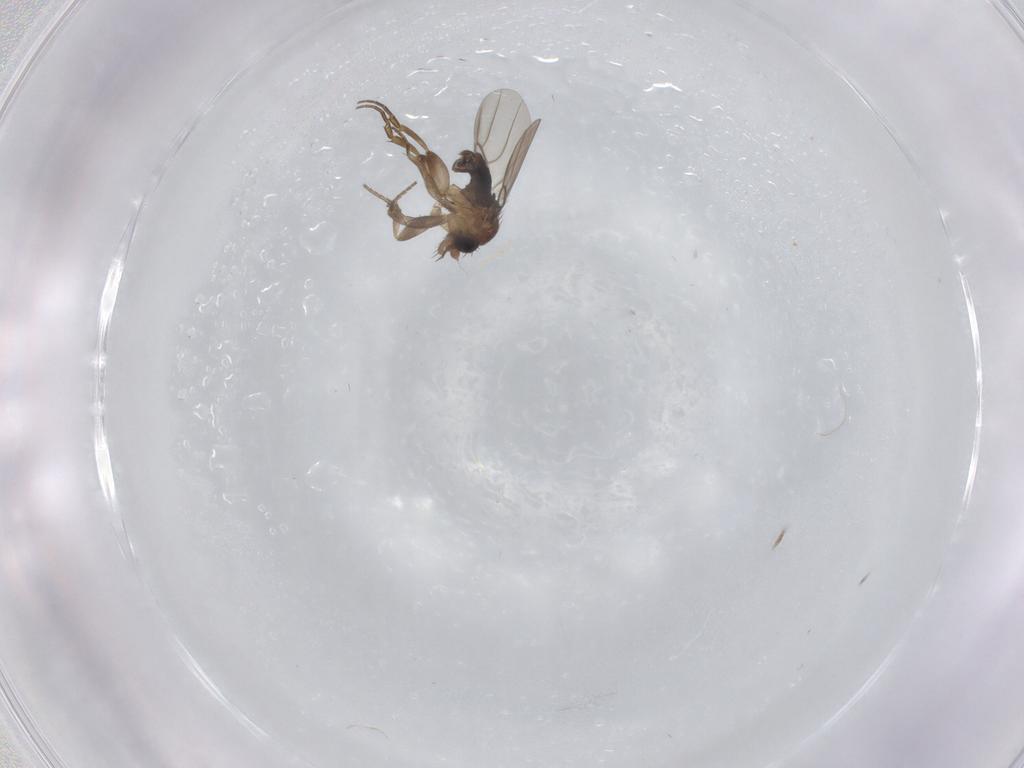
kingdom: Animalia
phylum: Arthropoda
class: Insecta
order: Diptera
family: Phoridae
